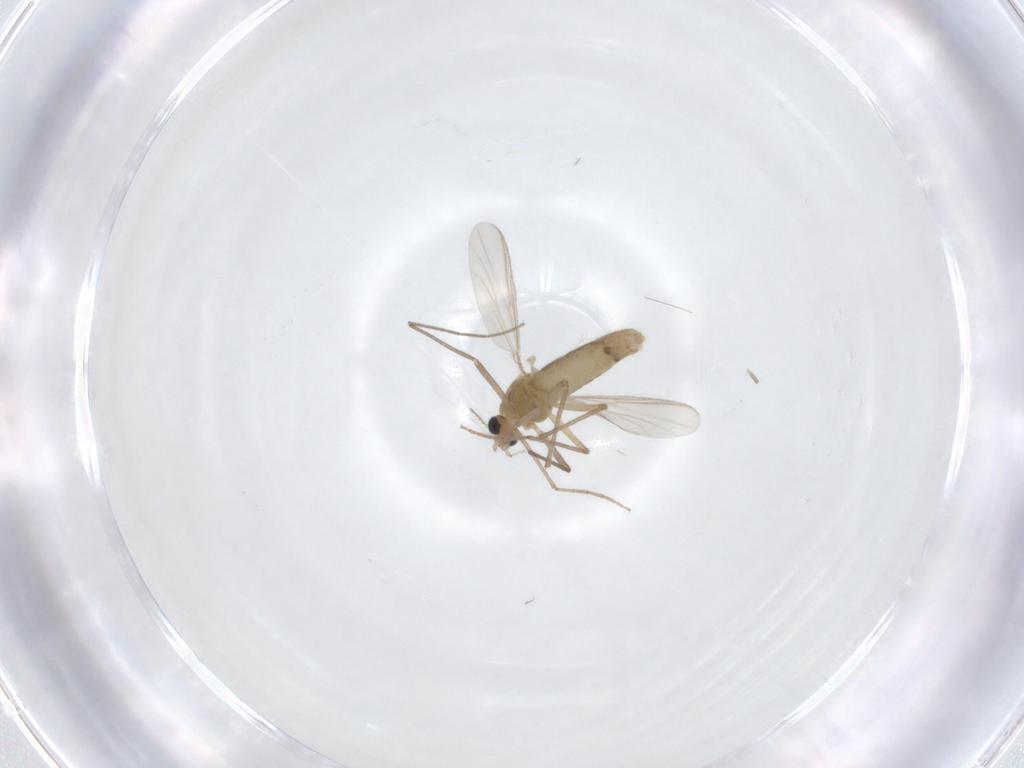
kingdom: Animalia
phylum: Arthropoda
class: Insecta
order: Diptera
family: Chironomidae
